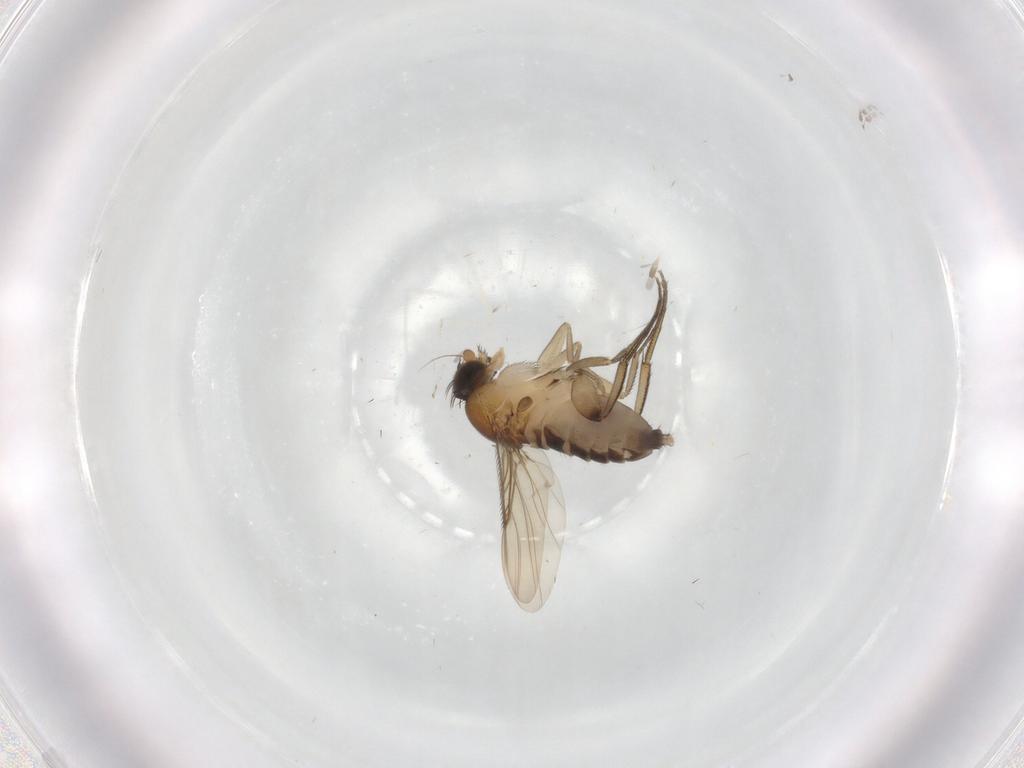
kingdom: Animalia
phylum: Arthropoda
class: Insecta
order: Diptera
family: Phoridae
